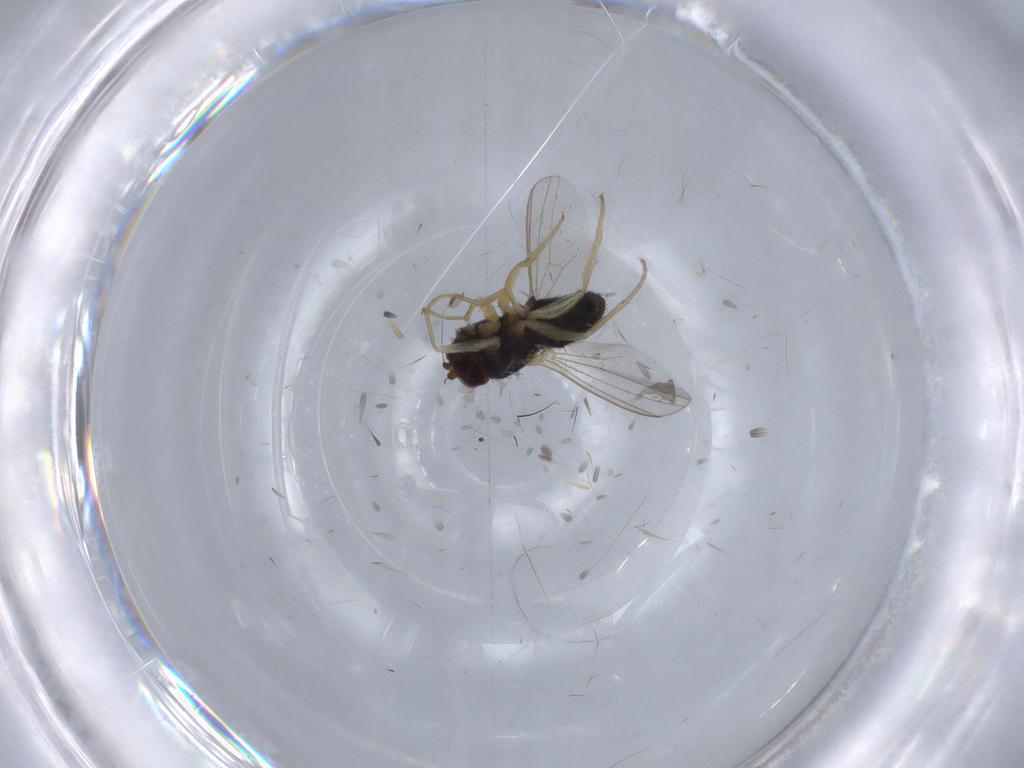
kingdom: Animalia
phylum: Arthropoda
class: Insecta
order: Diptera
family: Dolichopodidae
